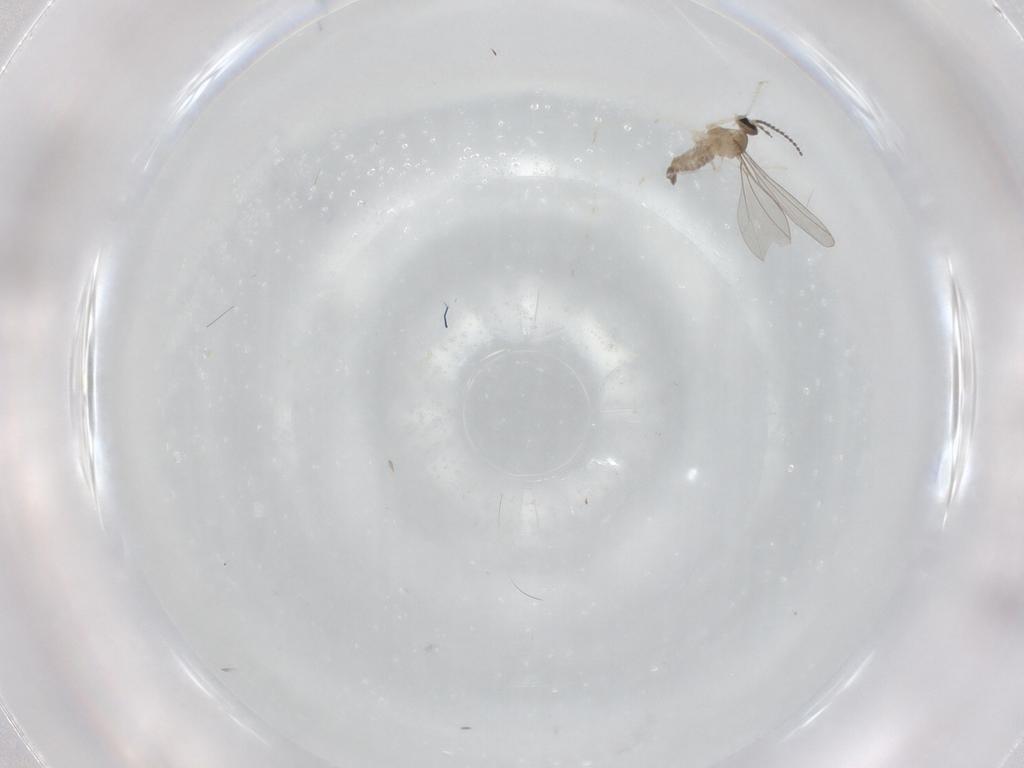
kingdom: Animalia
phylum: Arthropoda
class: Insecta
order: Diptera
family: Cecidomyiidae
